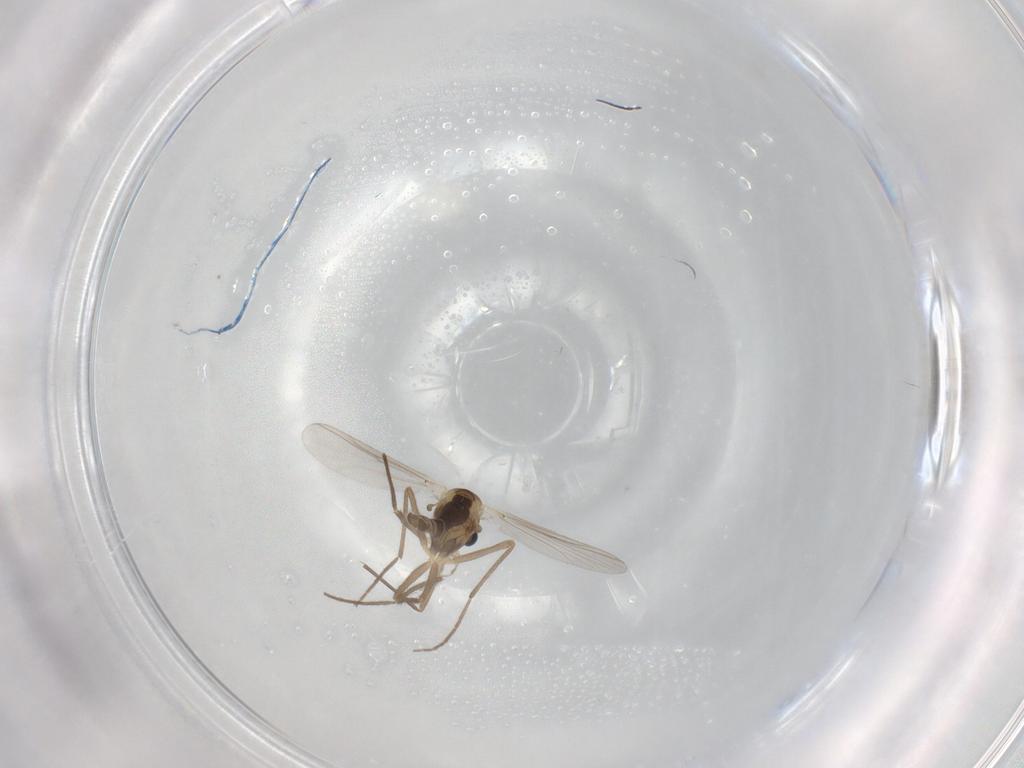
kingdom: Animalia
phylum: Arthropoda
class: Insecta
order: Diptera
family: Chironomidae
